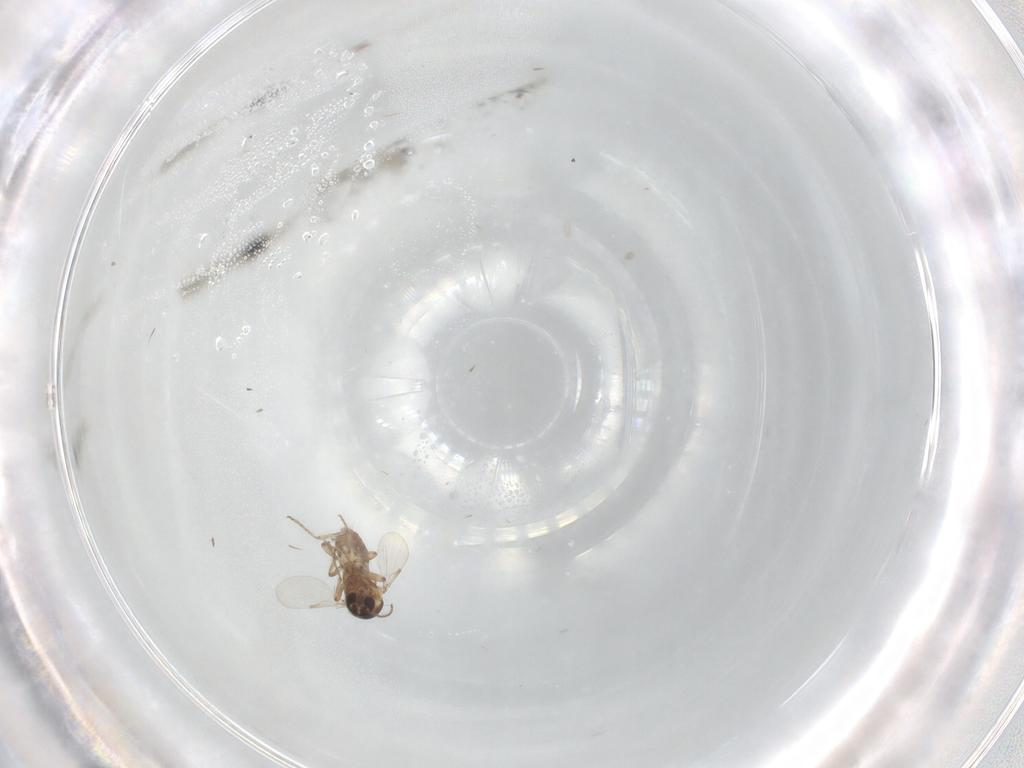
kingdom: Animalia
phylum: Arthropoda
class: Insecta
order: Diptera
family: Ceratopogonidae
